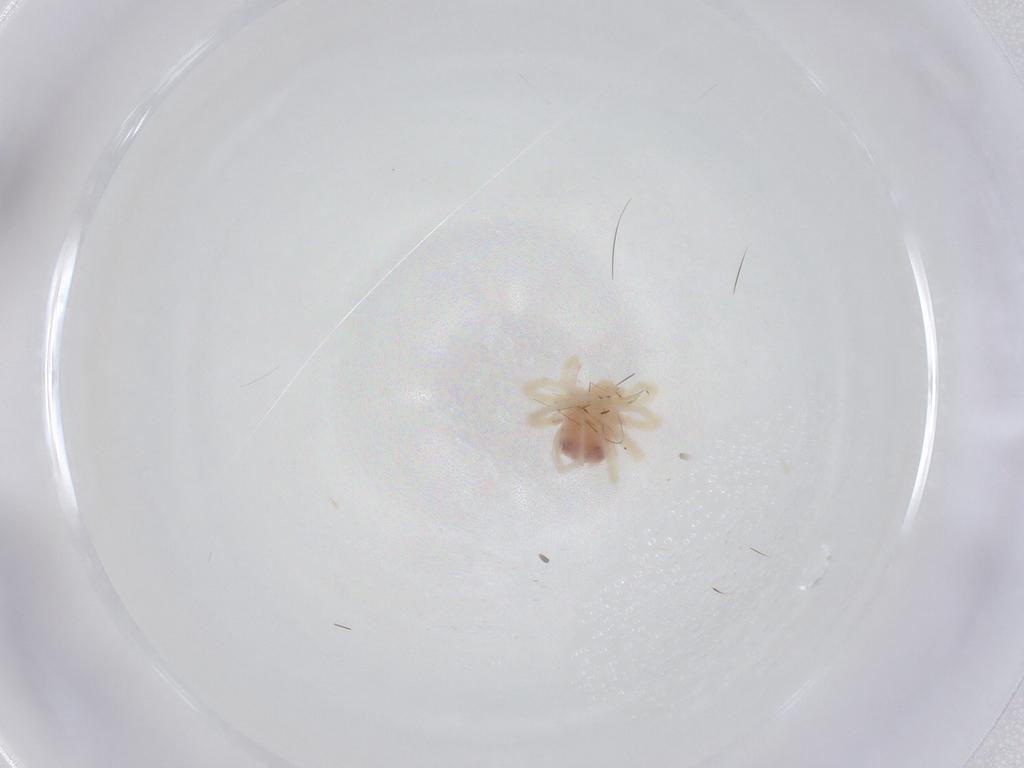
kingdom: Animalia
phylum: Arthropoda
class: Arachnida
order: Trombidiformes
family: Anystidae
